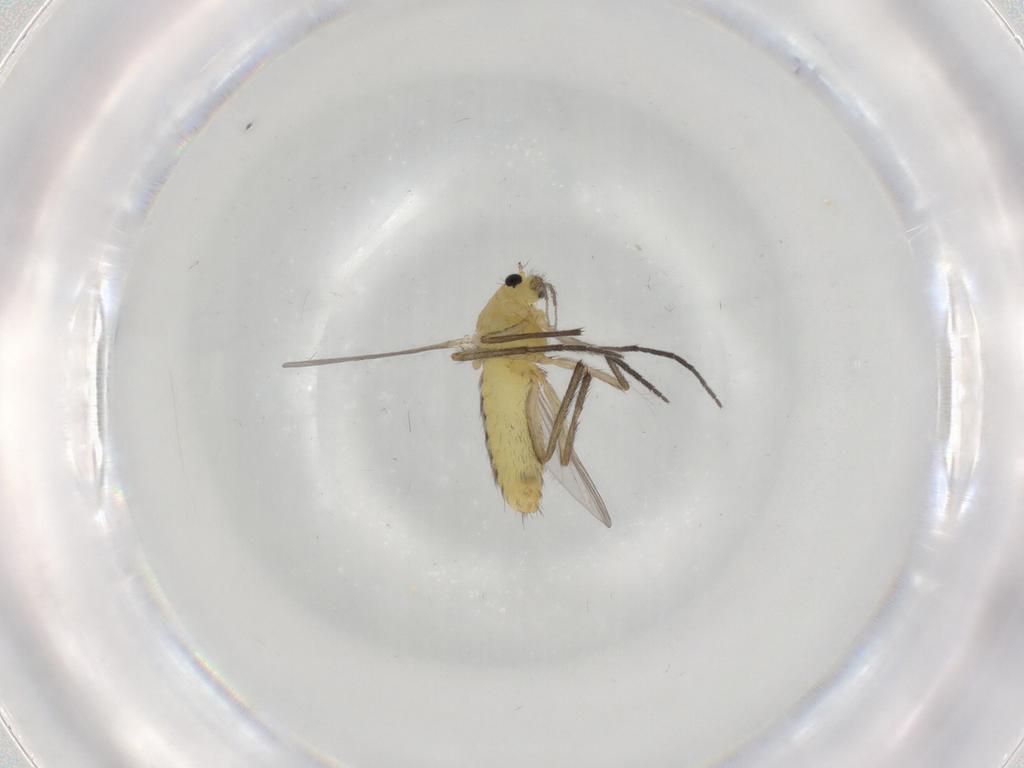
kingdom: Animalia
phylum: Arthropoda
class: Insecta
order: Diptera
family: Chironomidae
